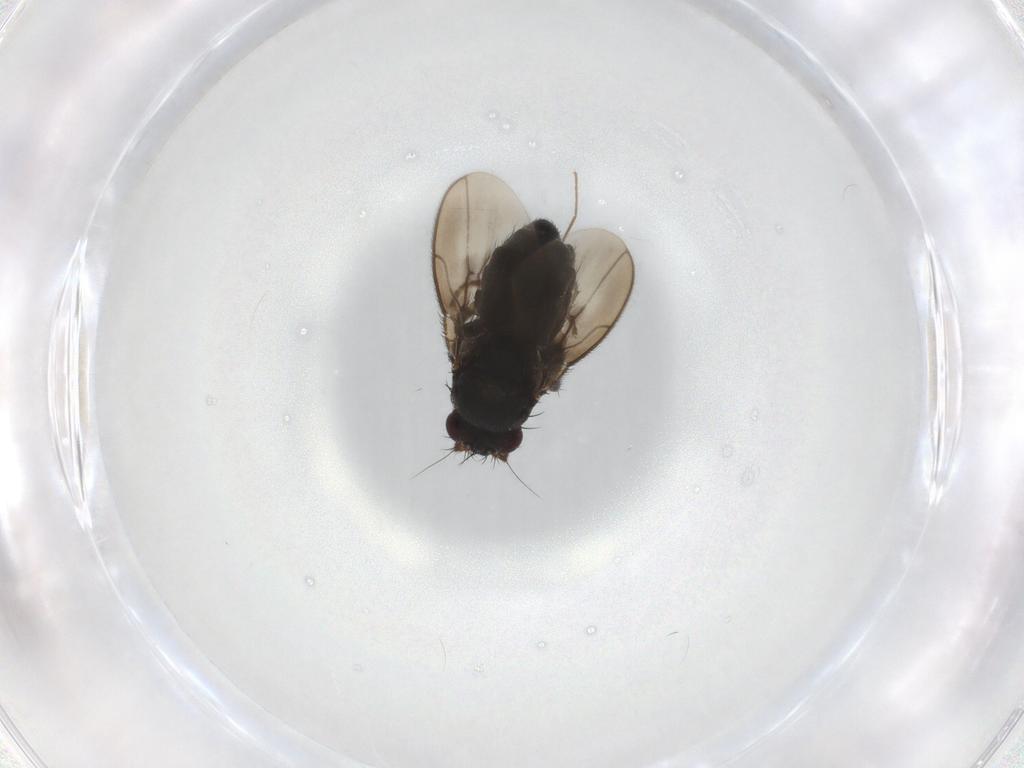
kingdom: Animalia
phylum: Arthropoda
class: Insecta
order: Diptera
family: Sphaeroceridae
